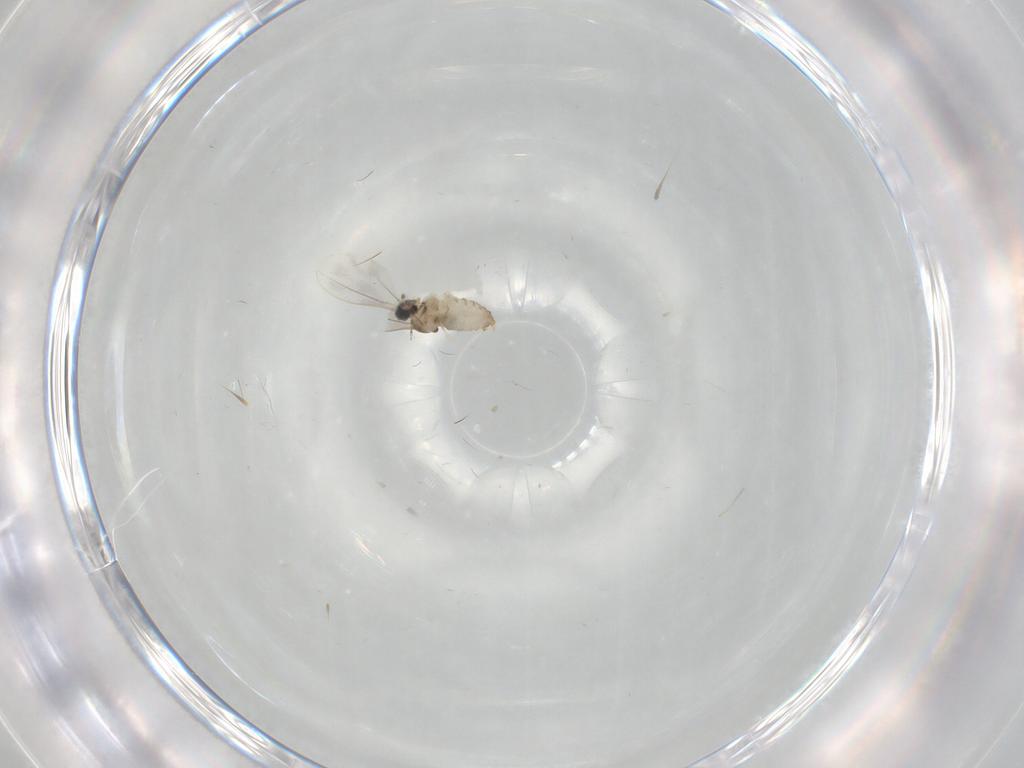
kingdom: Animalia
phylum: Arthropoda
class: Insecta
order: Diptera
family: Cecidomyiidae
